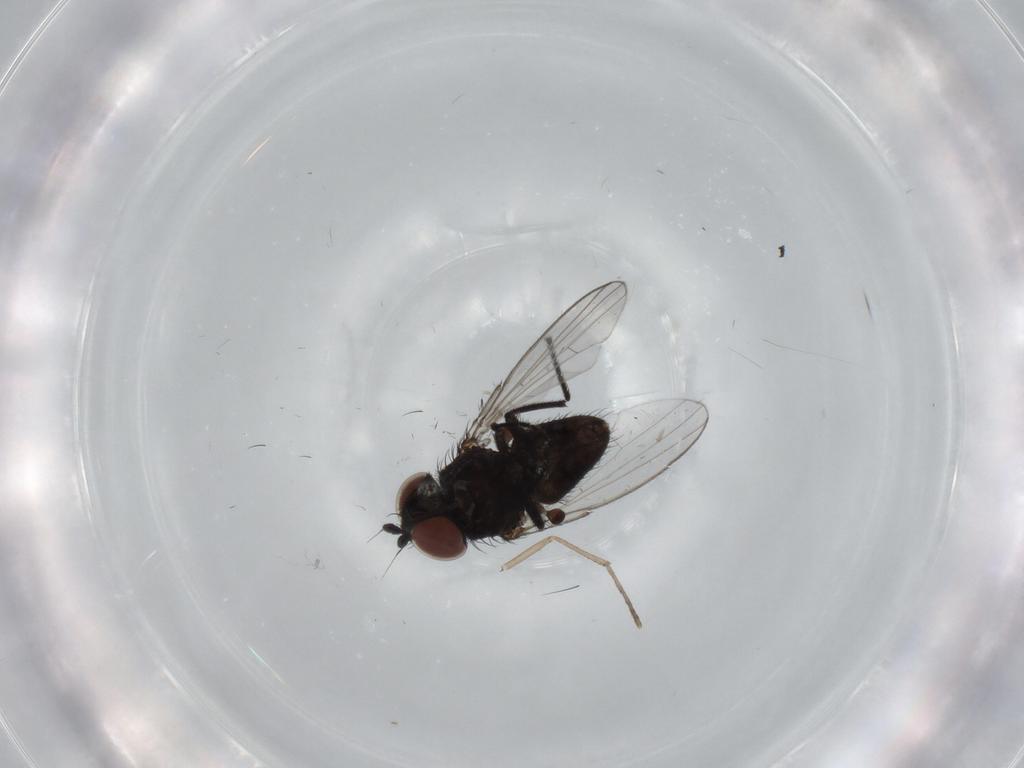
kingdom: Animalia
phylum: Arthropoda
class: Insecta
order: Diptera
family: Milichiidae
